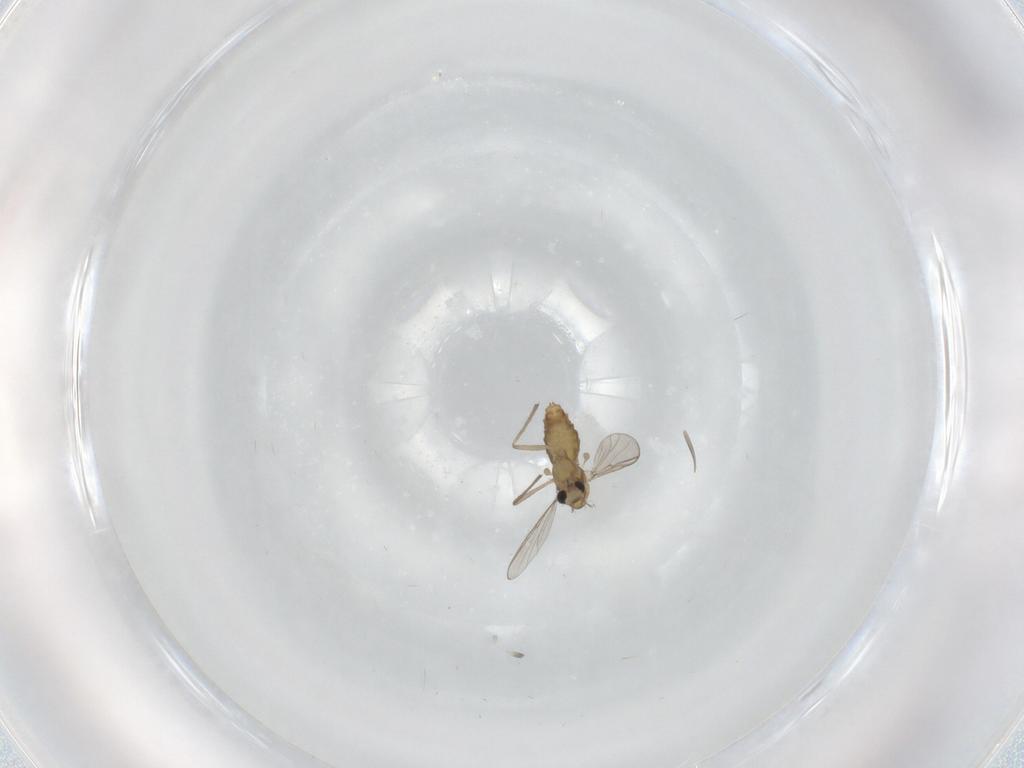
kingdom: Animalia
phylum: Arthropoda
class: Insecta
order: Diptera
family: Chironomidae
